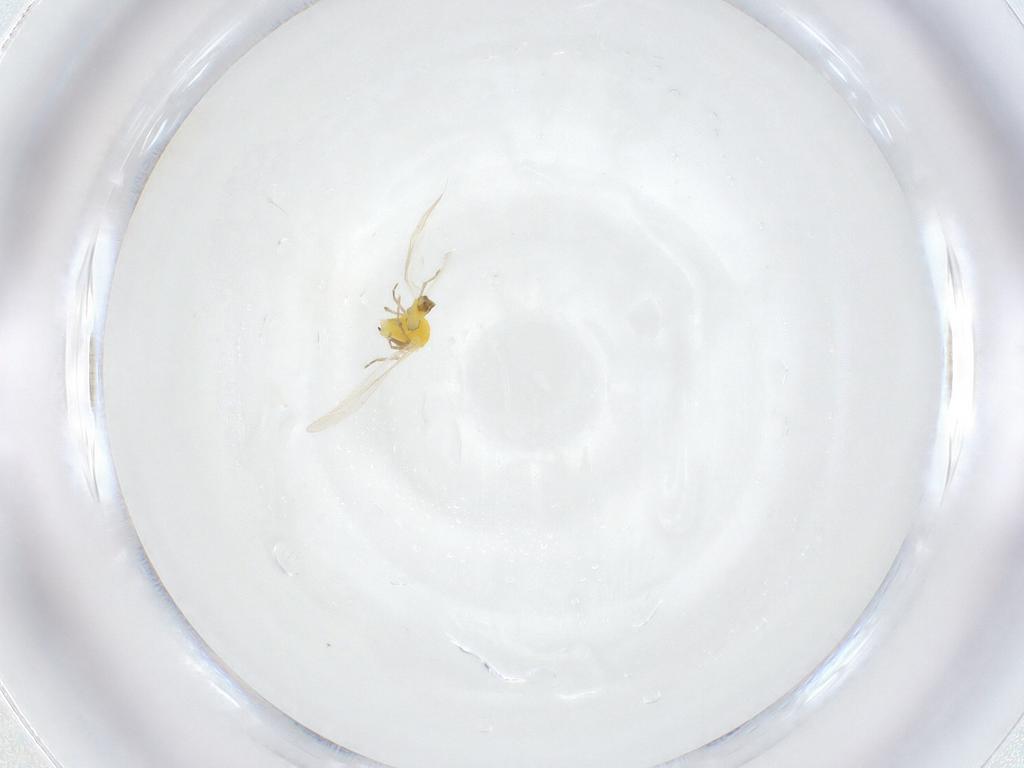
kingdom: Animalia
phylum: Arthropoda
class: Insecta
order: Hemiptera
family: Aleyrodidae
